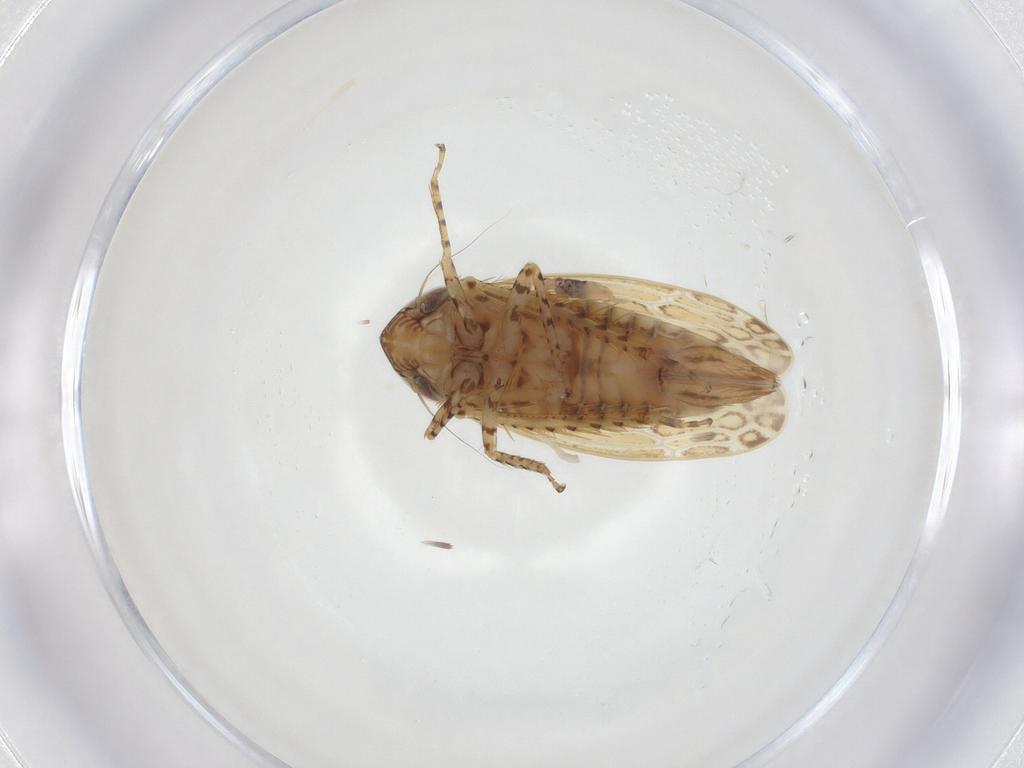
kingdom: Animalia
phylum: Arthropoda
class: Insecta
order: Hemiptera
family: Cicadellidae
